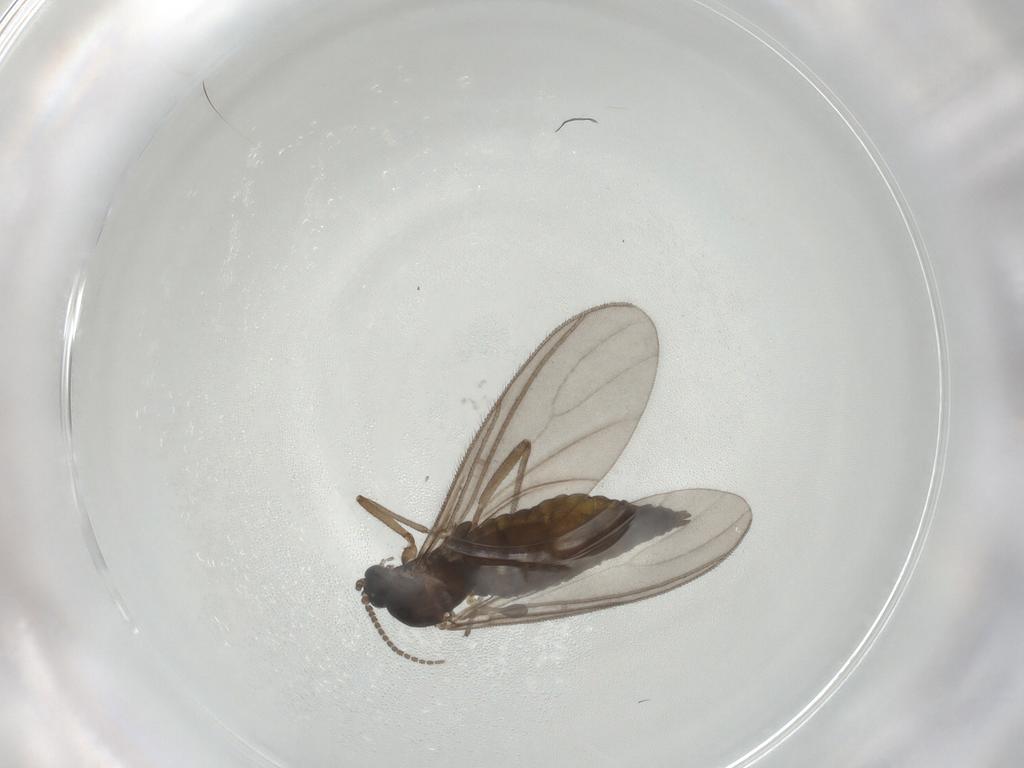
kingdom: Animalia
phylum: Arthropoda
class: Insecta
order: Diptera
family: Sciaridae
